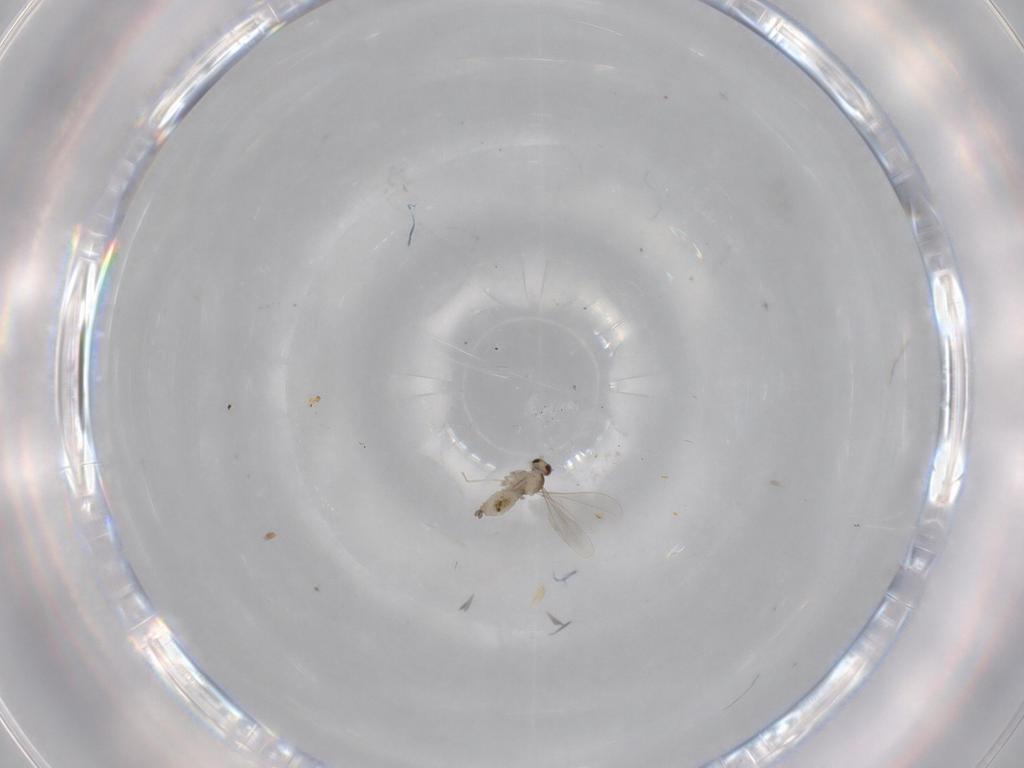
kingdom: Animalia
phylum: Arthropoda
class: Insecta
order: Diptera
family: Cecidomyiidae
